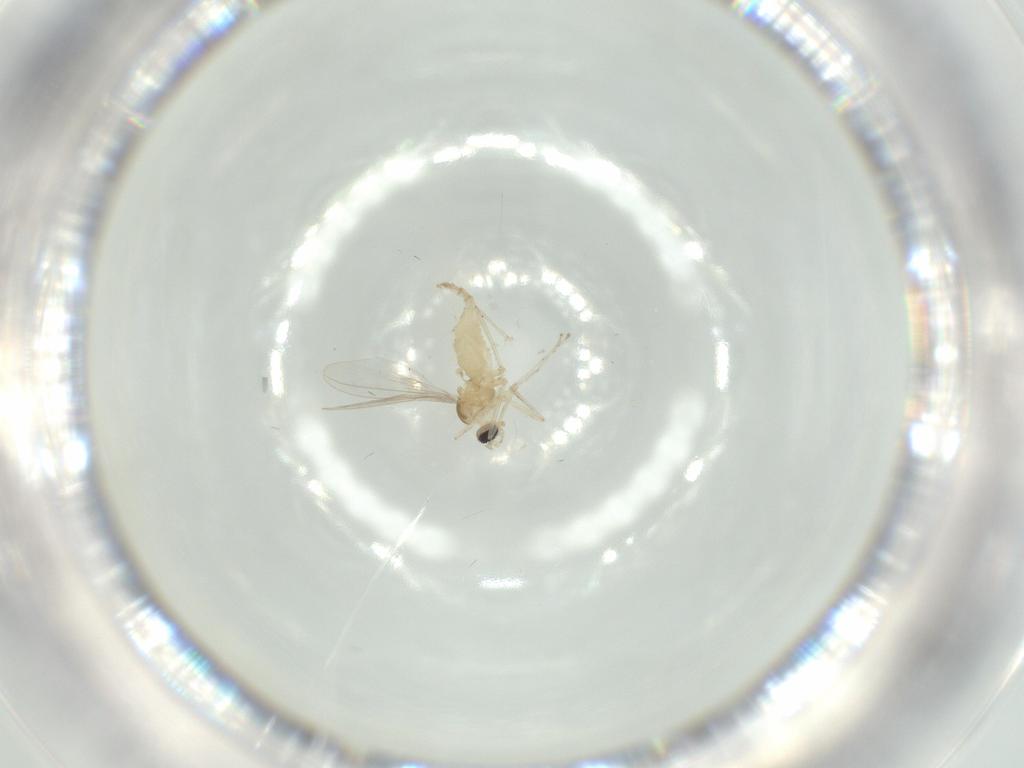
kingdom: Animalia
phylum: Arthropoda
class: Insecta
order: Diptera
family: Cecidomyiidae
